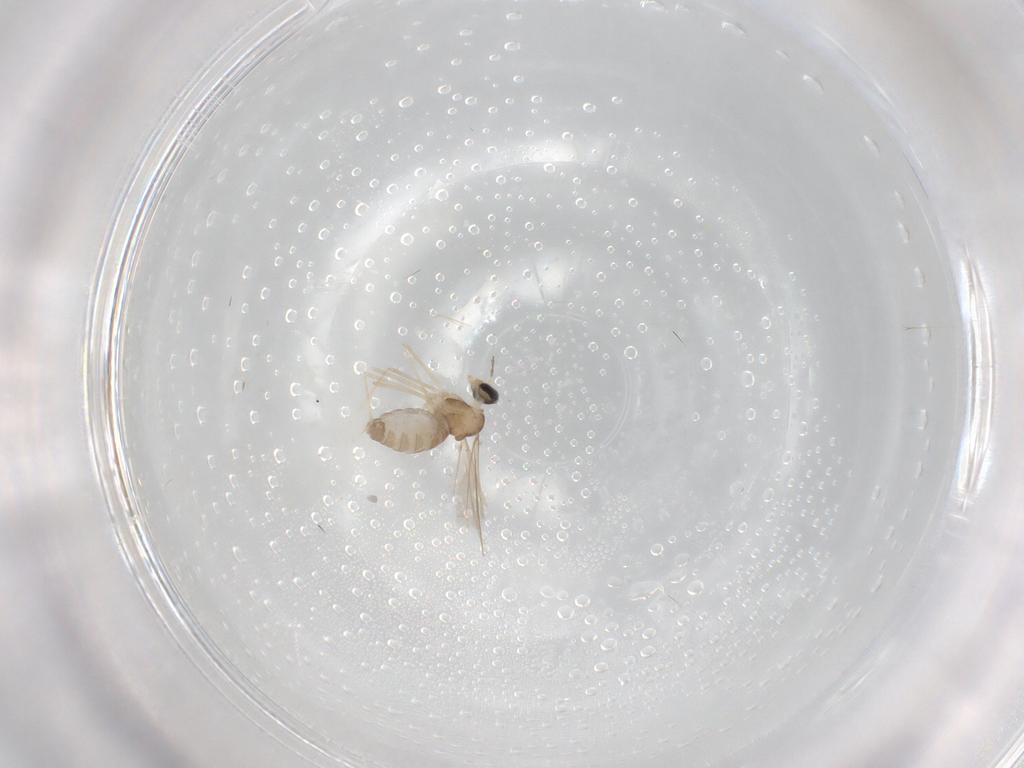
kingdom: Animalia
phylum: Arthropoda
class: Insecta
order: Diptera
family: Cecidomyiidae
